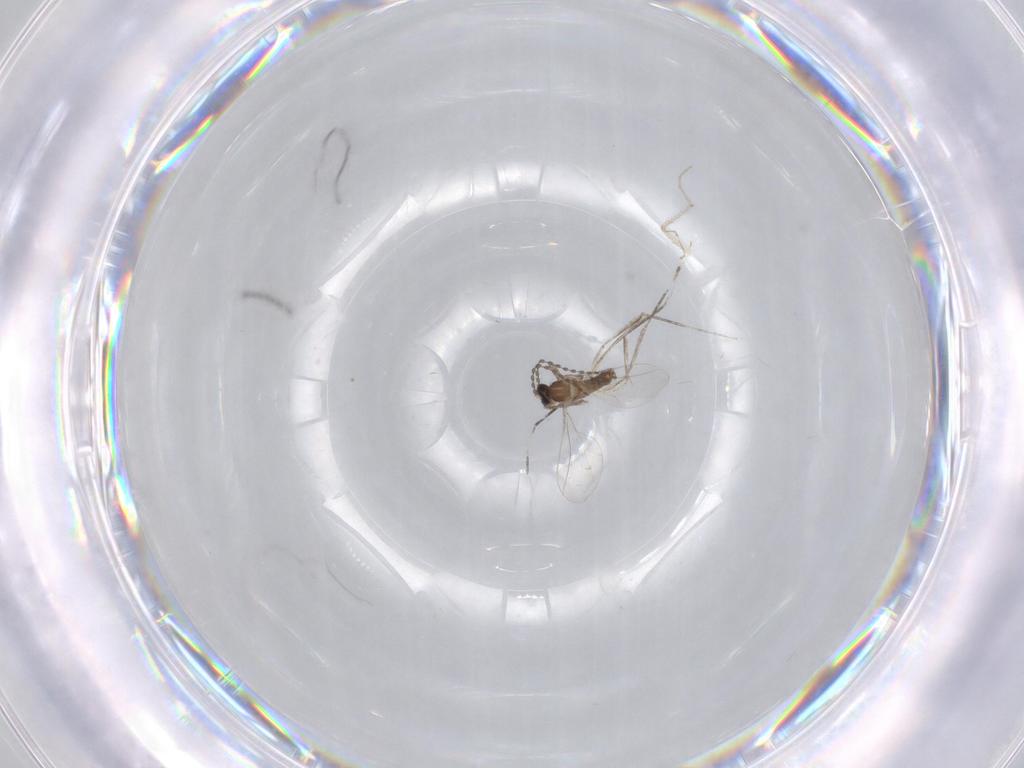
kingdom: Animalia
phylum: Arthropoda
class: Insecta
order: Diptera
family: Cecidomyiidae
